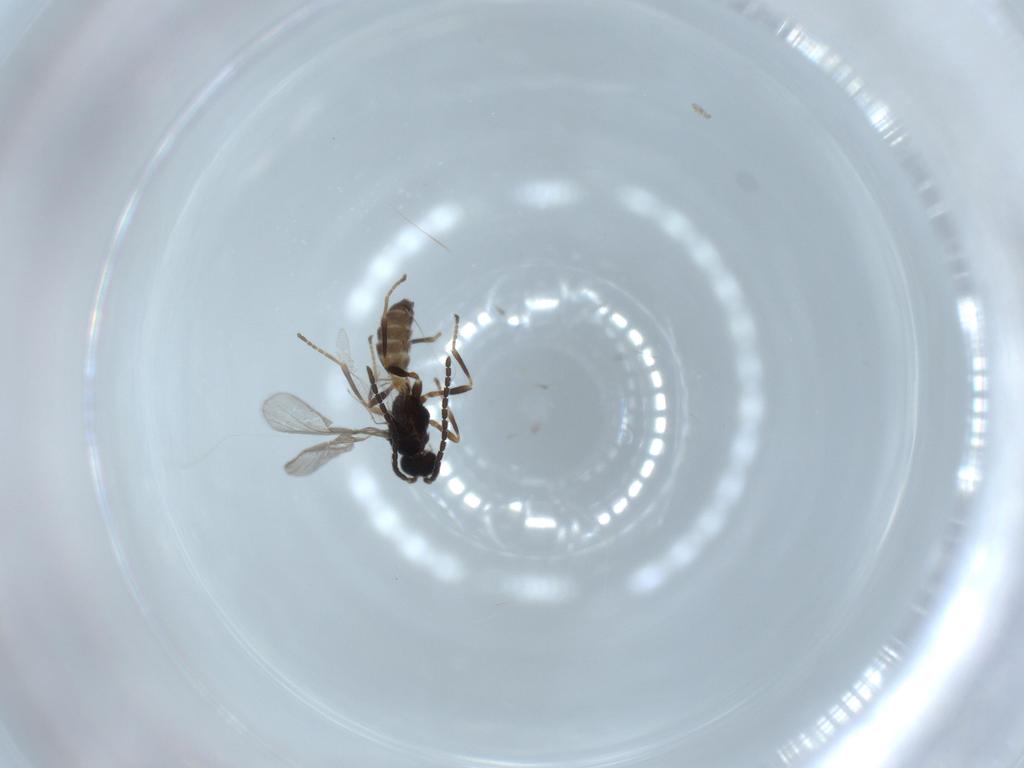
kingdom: Animalia
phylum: Arthropoda
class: Insecta
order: Hymenoptera
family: Braconidae
